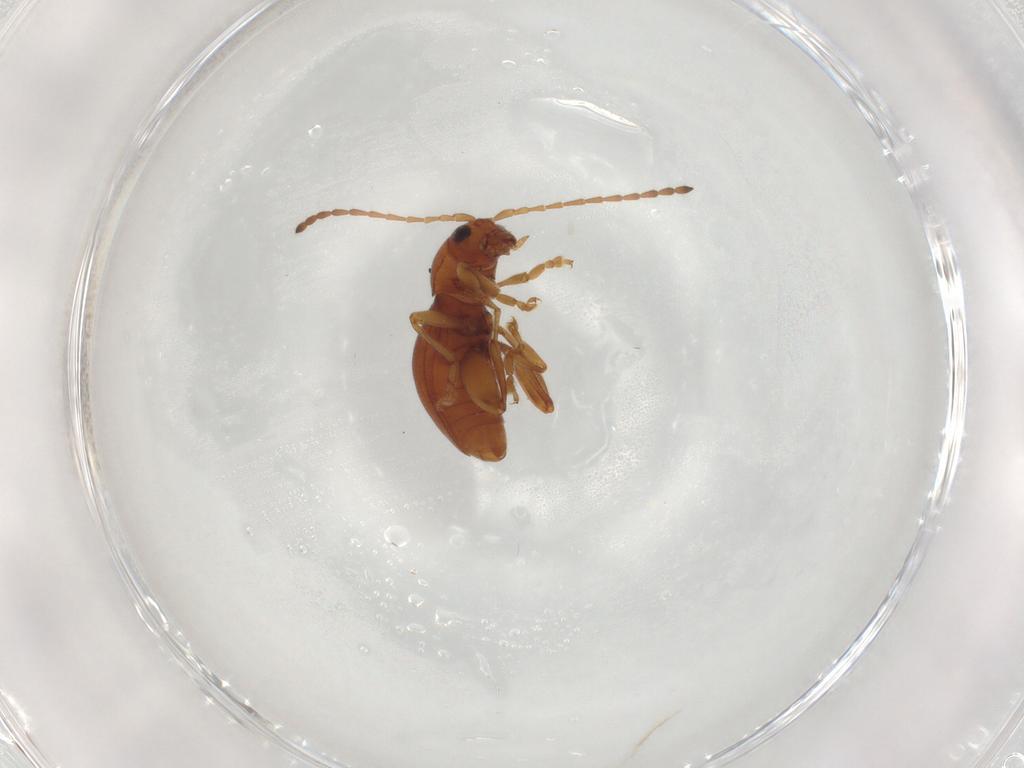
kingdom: Animalia
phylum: Arthropoda
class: Insecta
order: Coleoptera
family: Chrysomelidae
